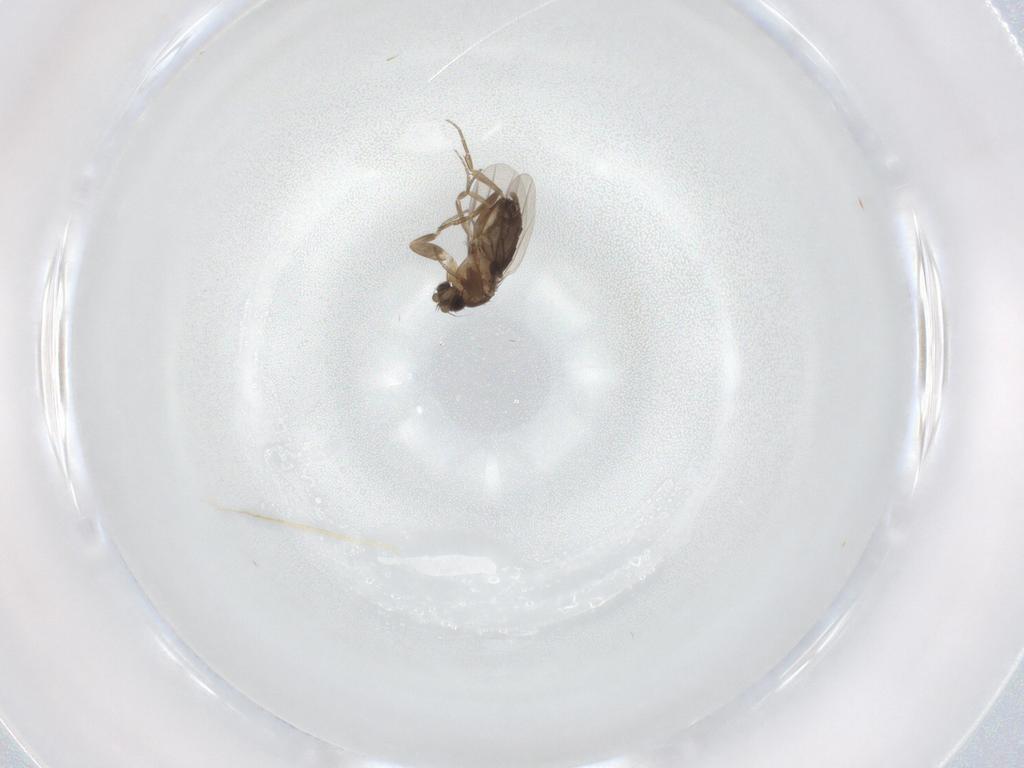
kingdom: Animalia
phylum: Arthropoda
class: Insecta
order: Diptera
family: Phoridae
